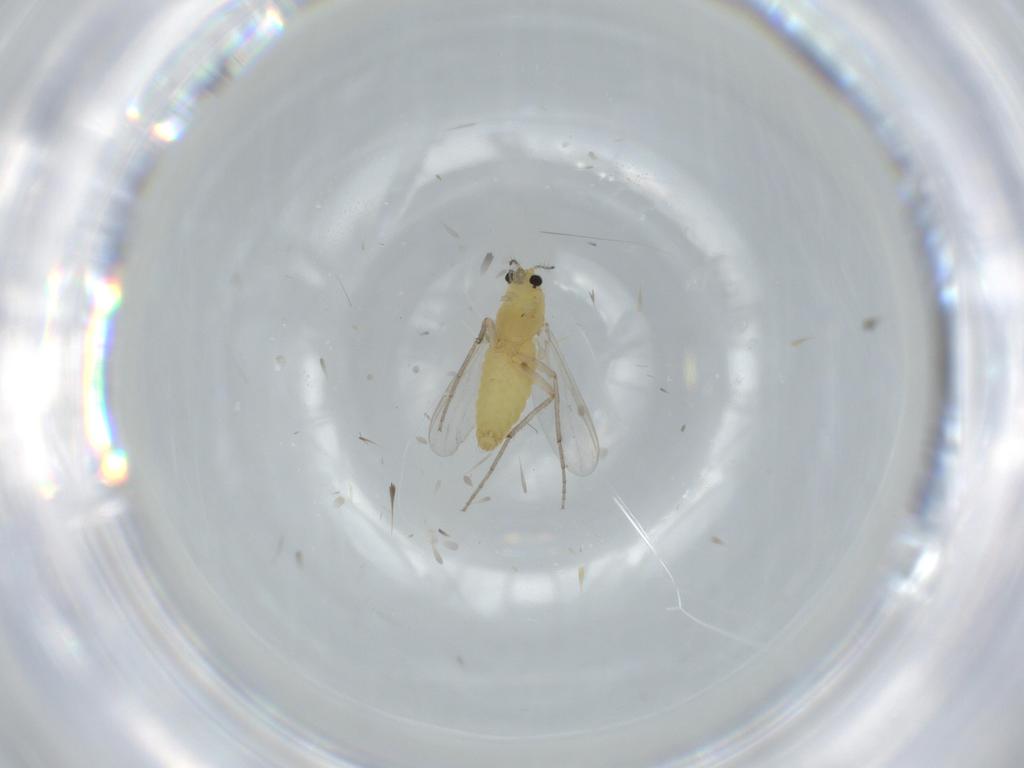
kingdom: Animalia
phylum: Arthropoda
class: Insecta
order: Diptera
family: Chironomidae
